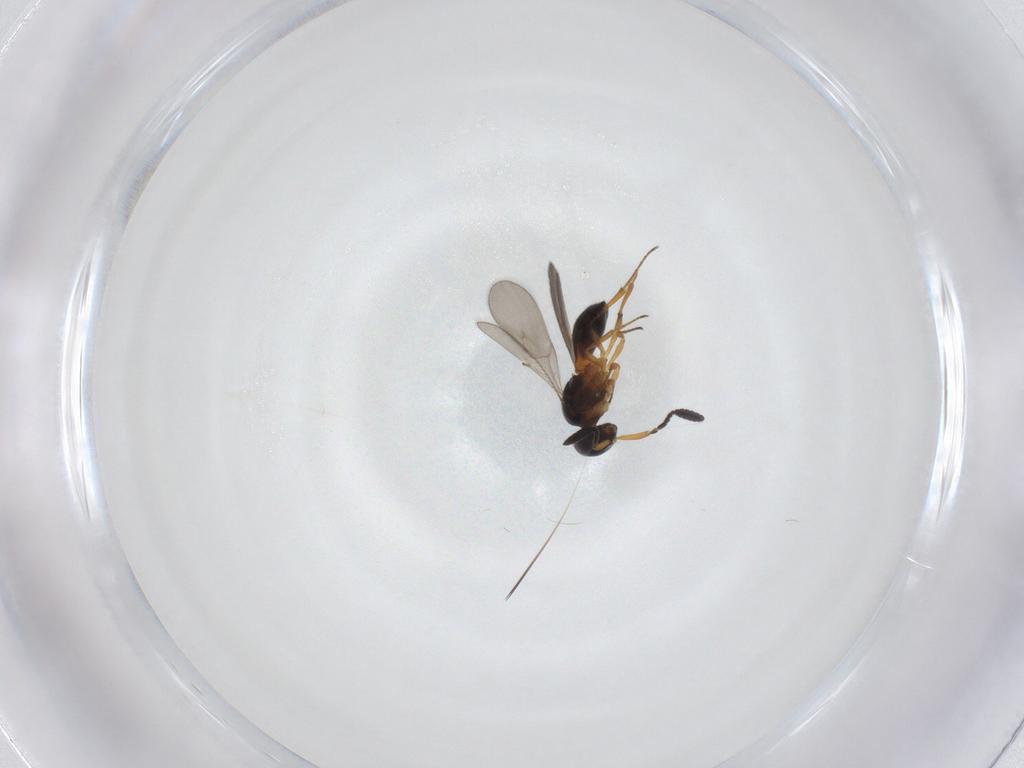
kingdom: Animalia
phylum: Arthropoda
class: Insecta
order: Hymenoptera
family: Scelionidae
